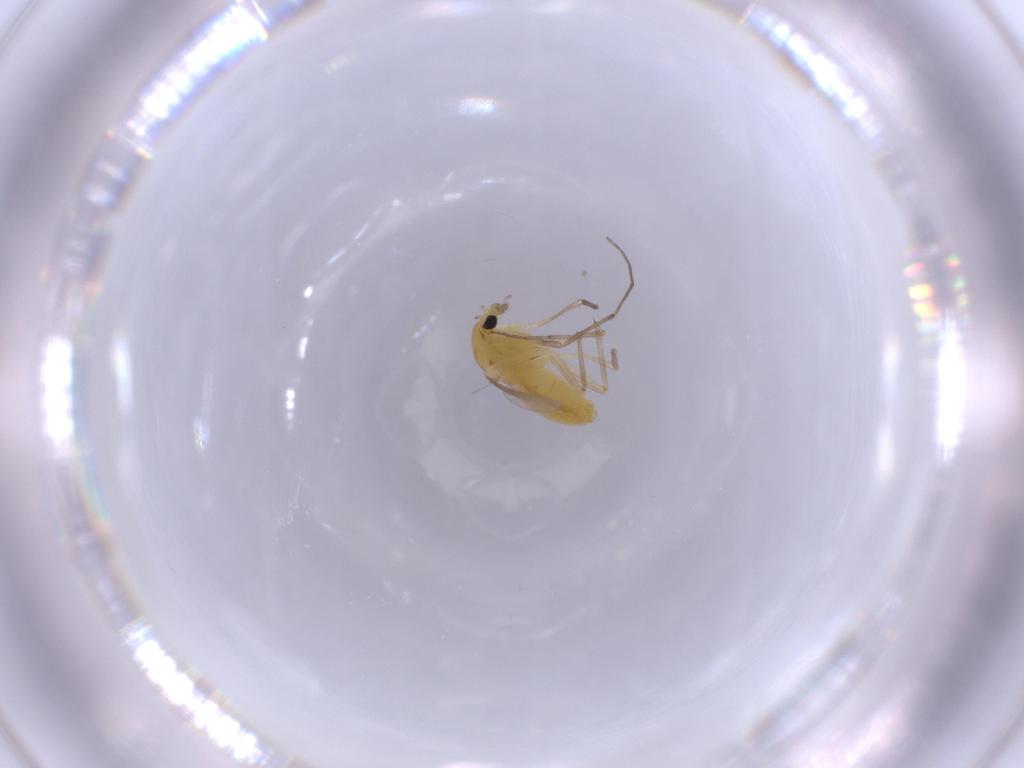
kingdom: Animalia
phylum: Arthropoda
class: Insecta
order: Diptera
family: Chironomidae
